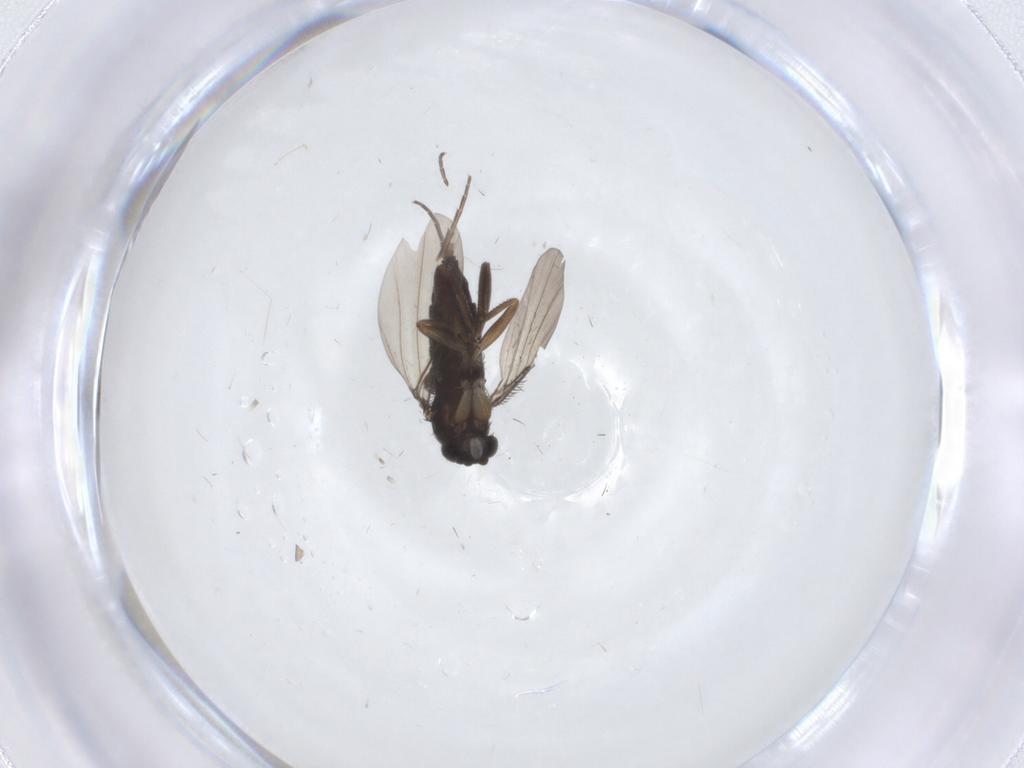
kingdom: Animalia
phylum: Arthropoda
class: Insecta
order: Diptera
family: Phoridae
